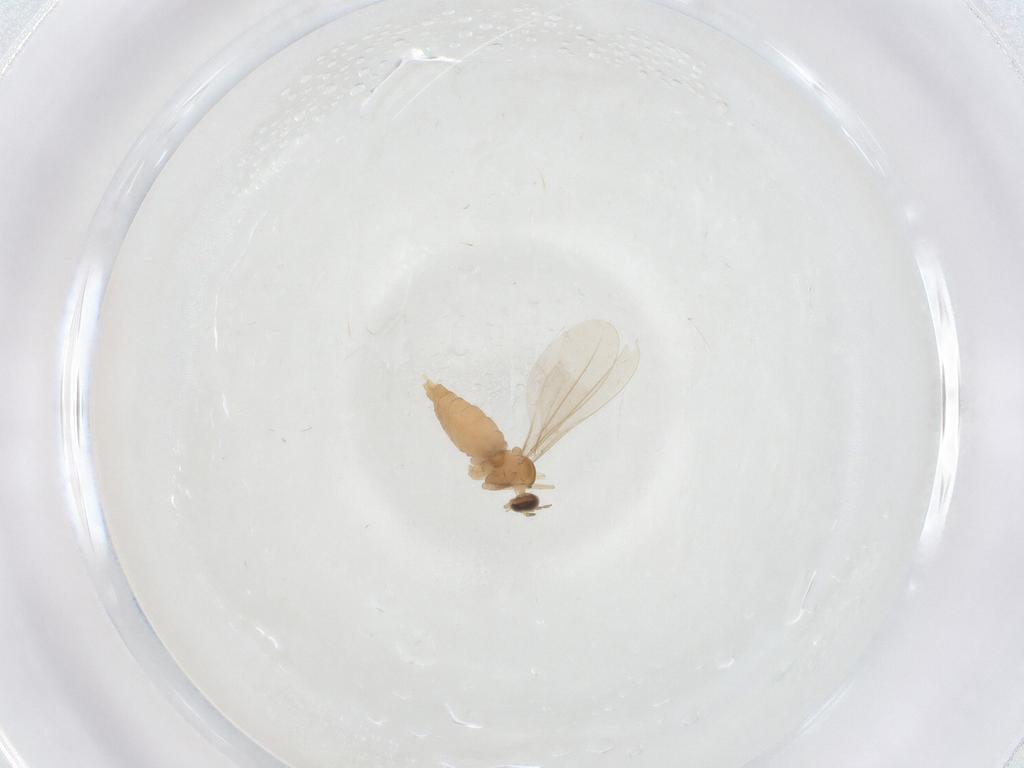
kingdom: Animalia
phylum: Arthropoda
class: Insecta
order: Diptera
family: Cecidomyiidae
